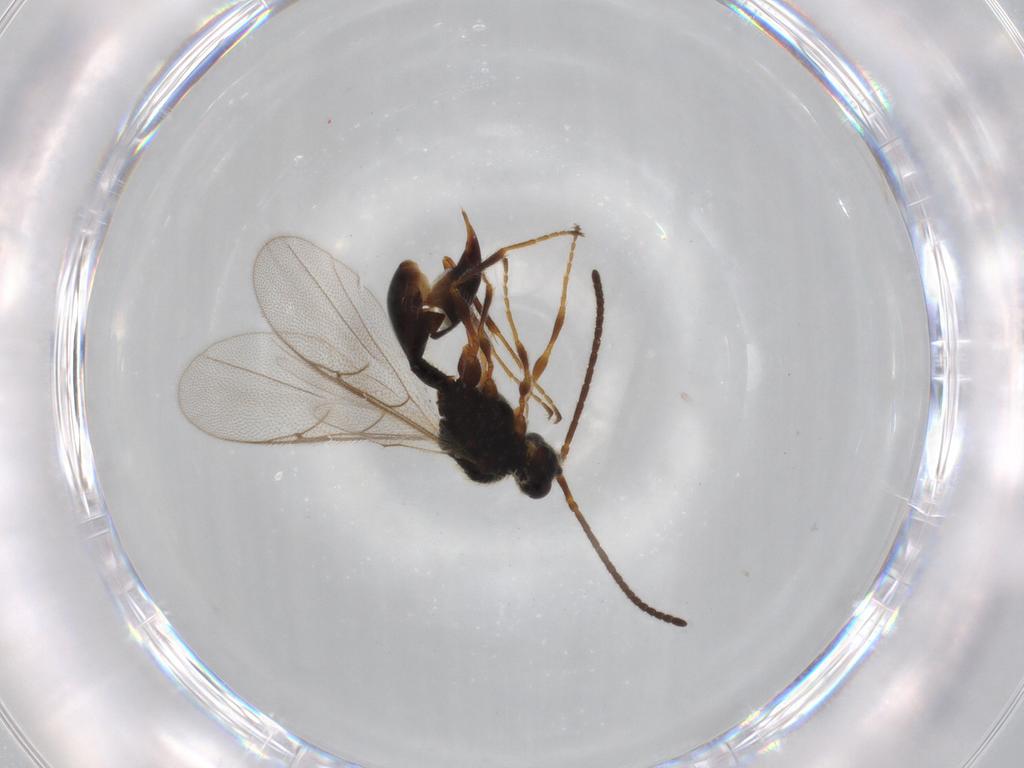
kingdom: Animalia
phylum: Arthropoda
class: Insecta
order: Hymenoptera
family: Diapriidae
